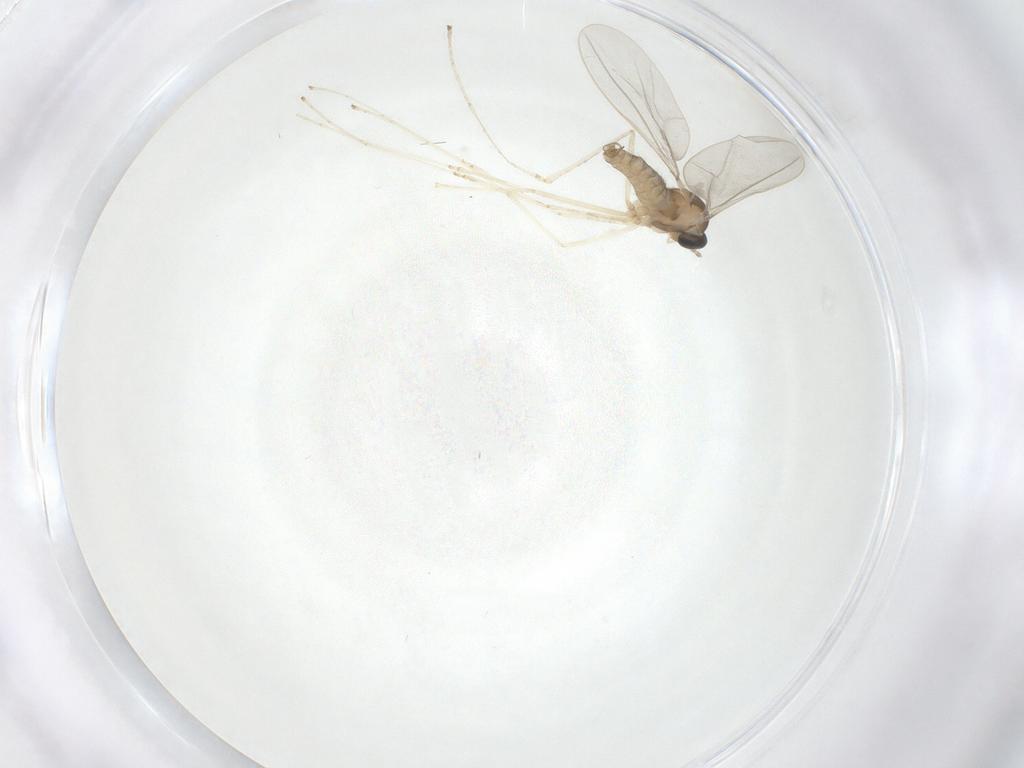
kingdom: Animalia
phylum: Arthropoda
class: Insecta
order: Diptera
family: Cecidomyiidae
